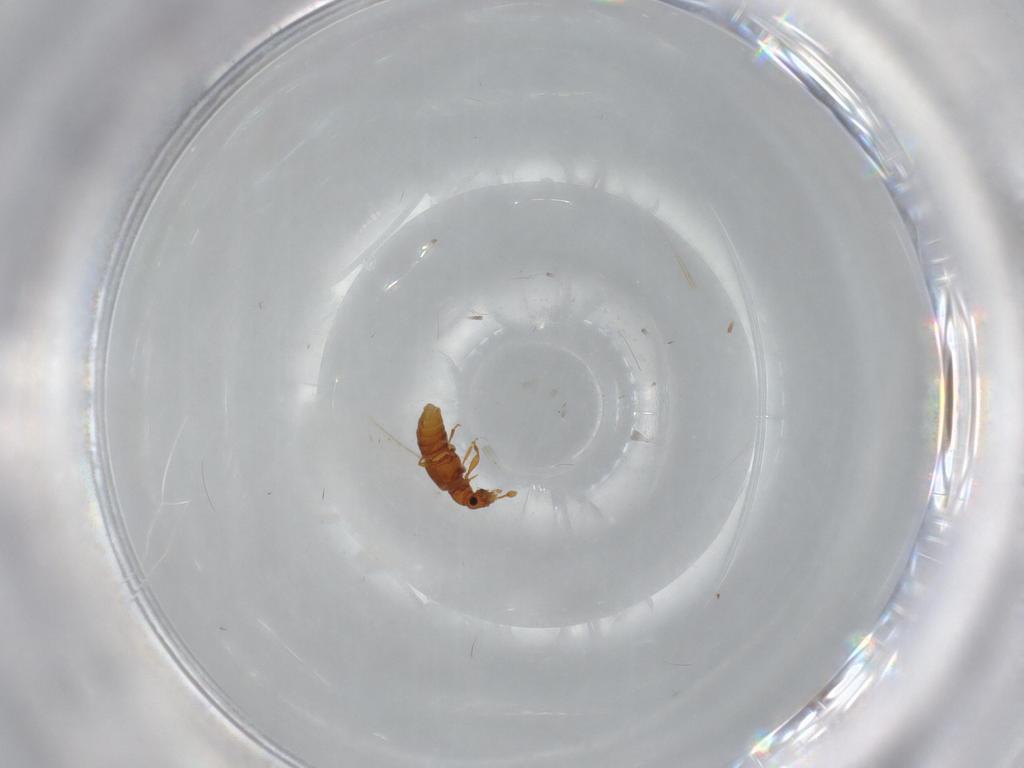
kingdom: Animalia
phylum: Arthropoda
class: Insecta
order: Coleoptera
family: Staphylinidae
